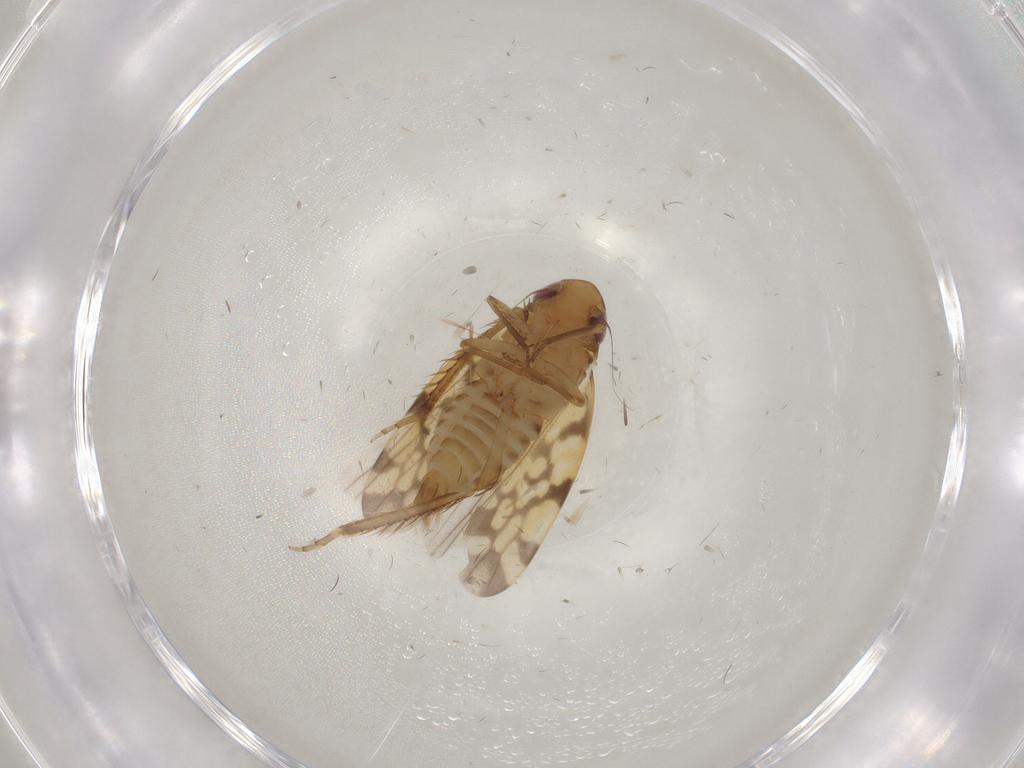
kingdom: Animalia
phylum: Arthropoda
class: Insecta
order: Hemiptera
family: Cicadellidae
